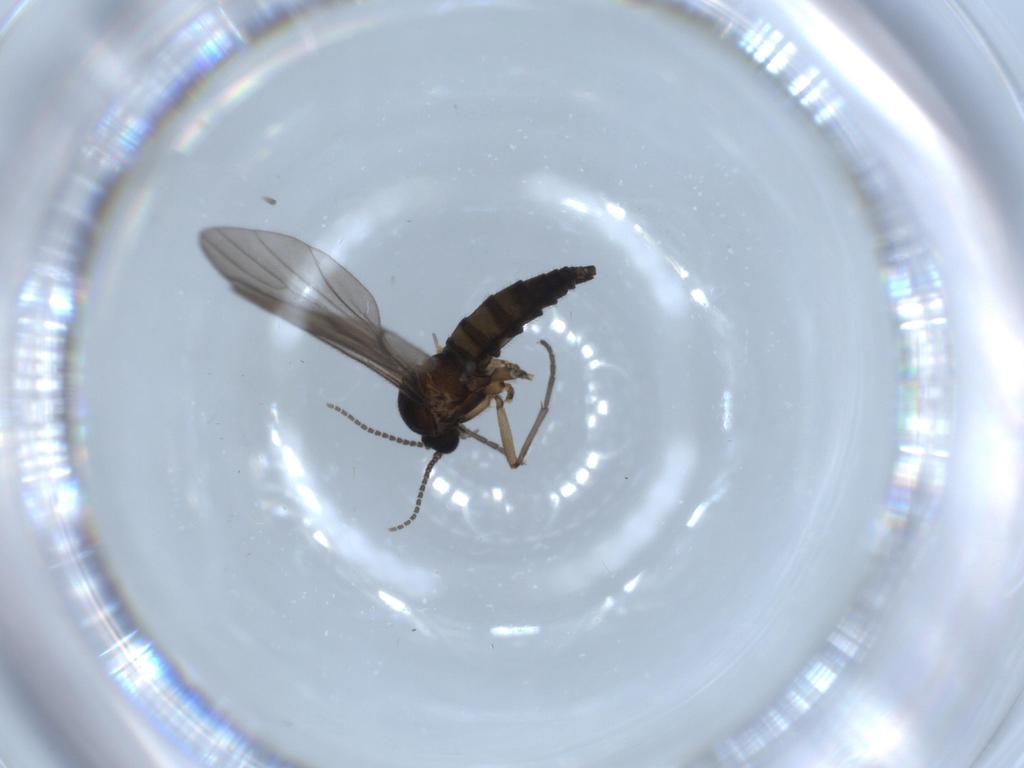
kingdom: Animalia
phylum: Arthropoda
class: Insecta
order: Diptera
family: Sciaridae
